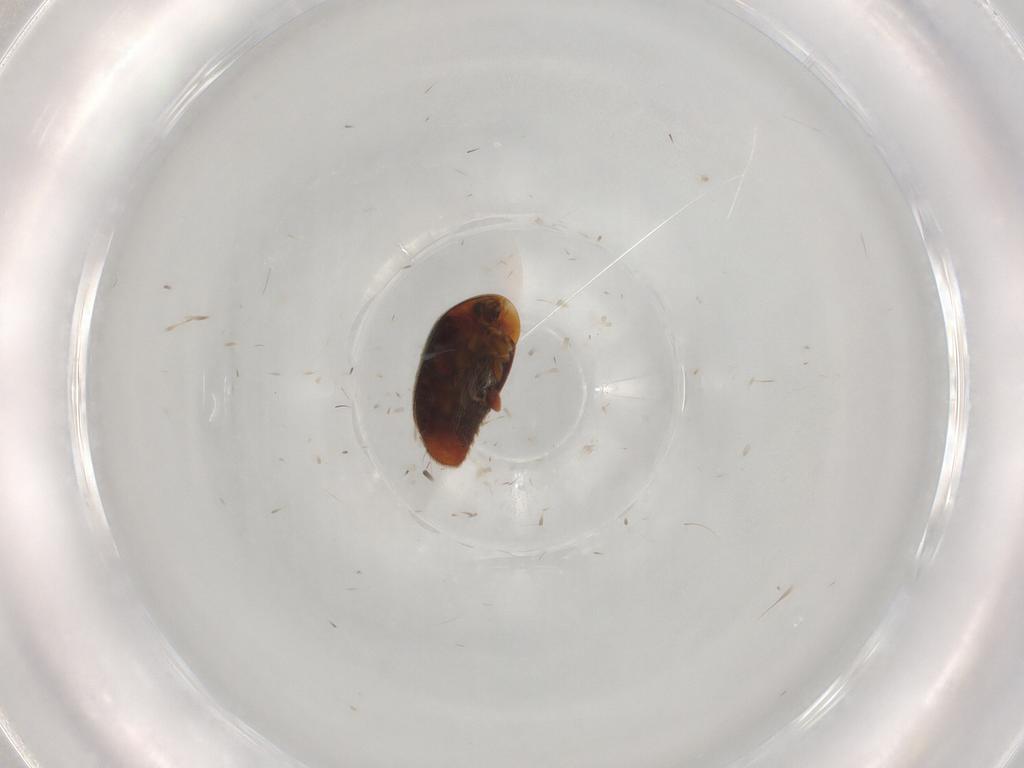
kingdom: Animalia
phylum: Arthropoda
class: Insecta
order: Coleoptera
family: Corylophidae
